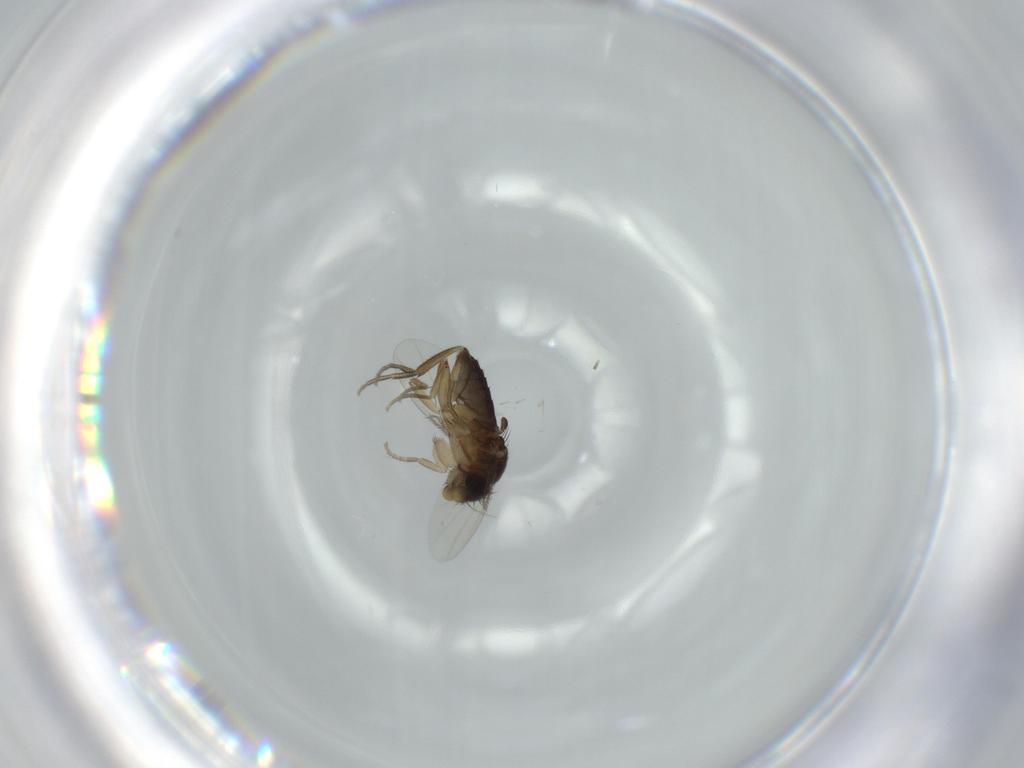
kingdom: Animalia
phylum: Arthropoda
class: Insecta
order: Diptera
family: Phoridae
